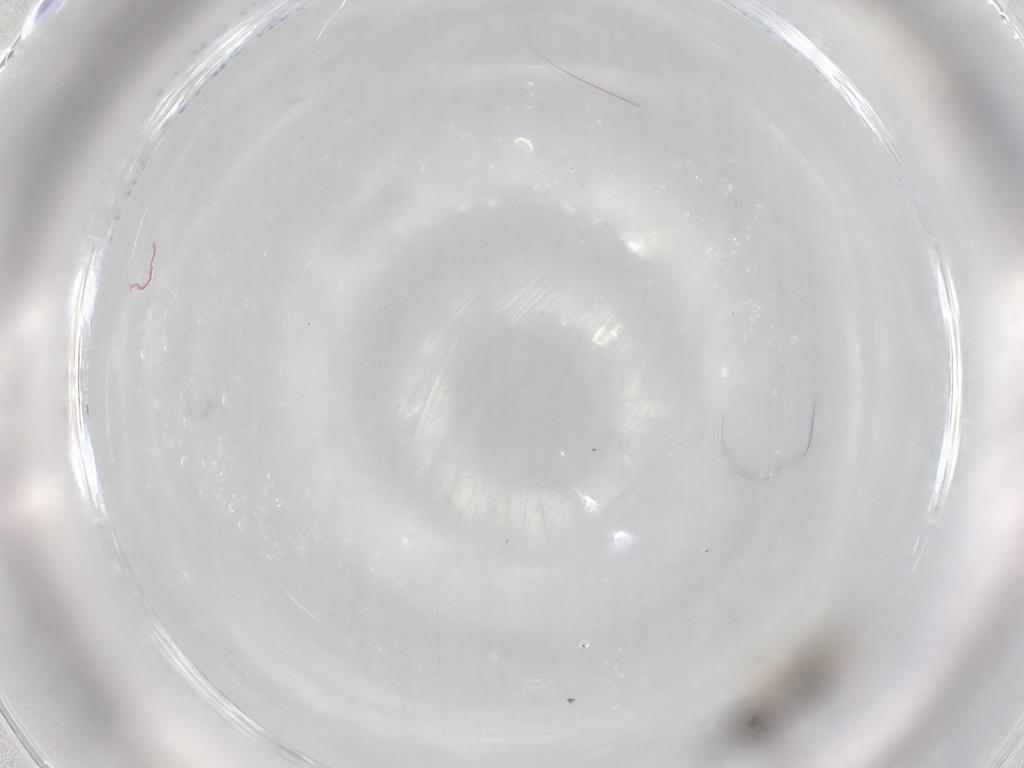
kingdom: Animalia
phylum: Arthropoda
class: Insecta
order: Hymenoptera
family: Figitidae
